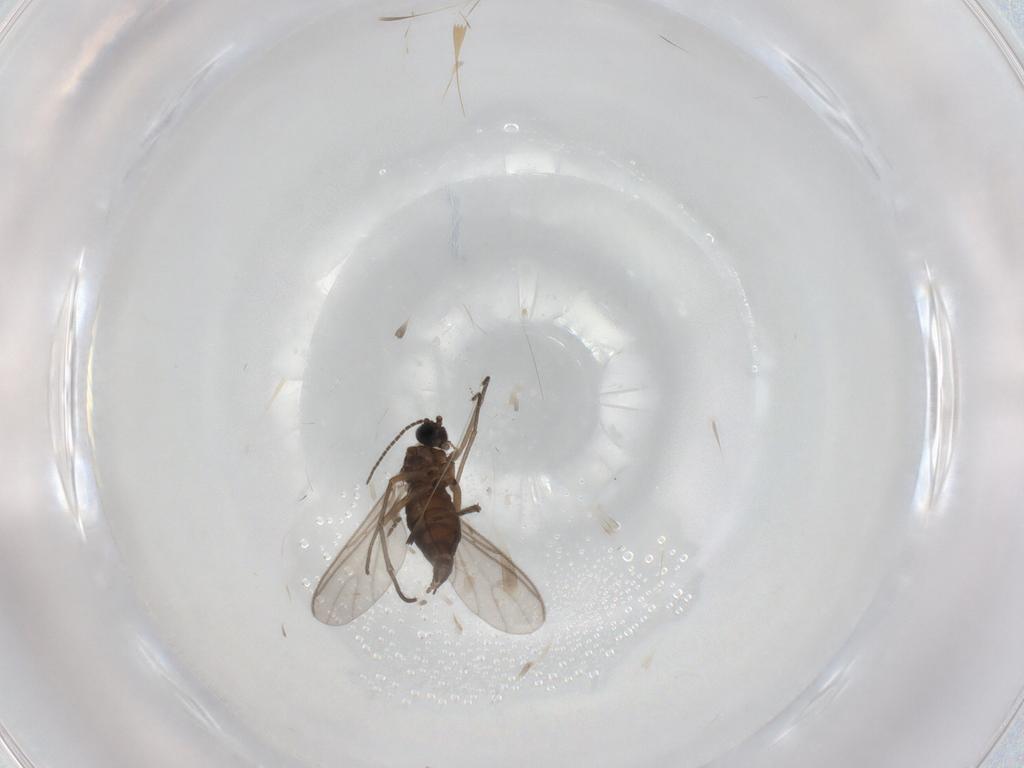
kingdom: Animalia
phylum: Arthropoda
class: Insecta
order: Diptera
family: Sciaridae
